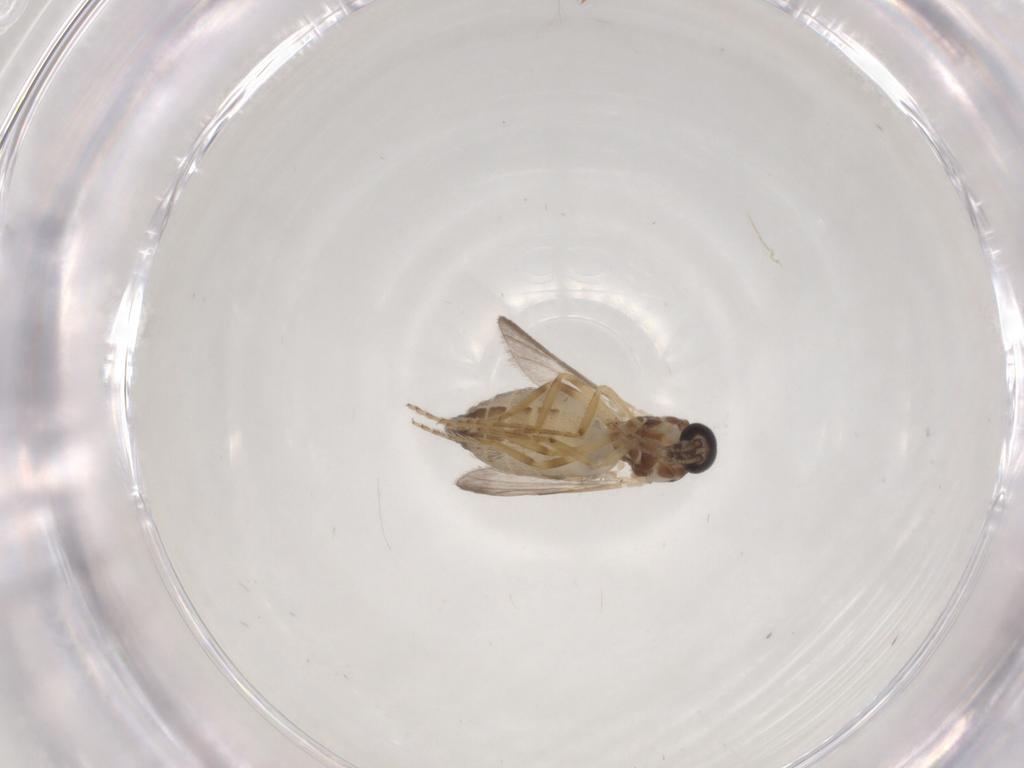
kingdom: Animalia
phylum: Arthropoda
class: Insecta
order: Diptera
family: Ceratopogonidae
